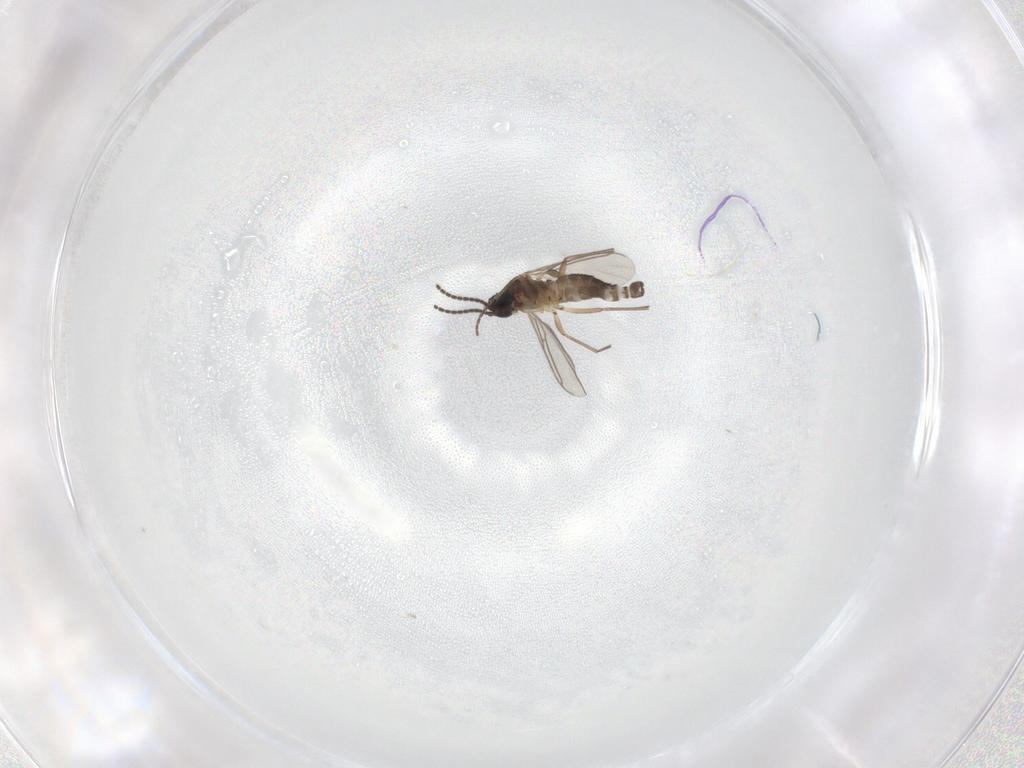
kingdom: Animalia
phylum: Arthropoda
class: Insecta
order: Diptera
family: Sciaridae
